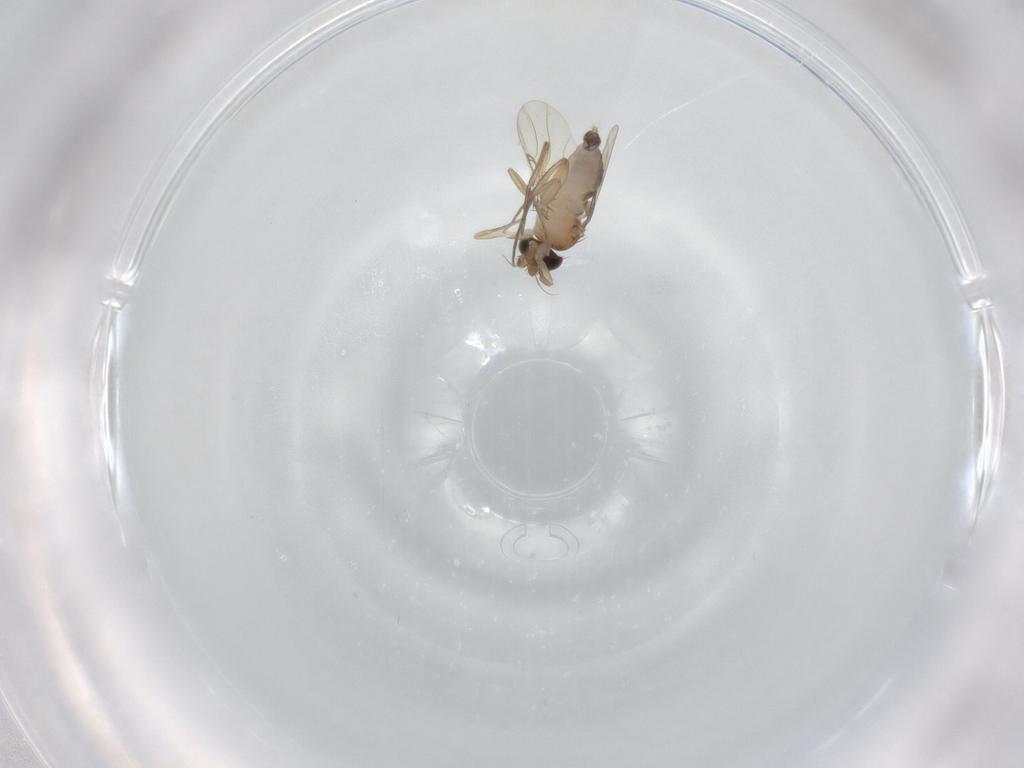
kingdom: Animalia
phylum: Arthropoda
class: Insecta
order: Diptera
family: Phoridae
